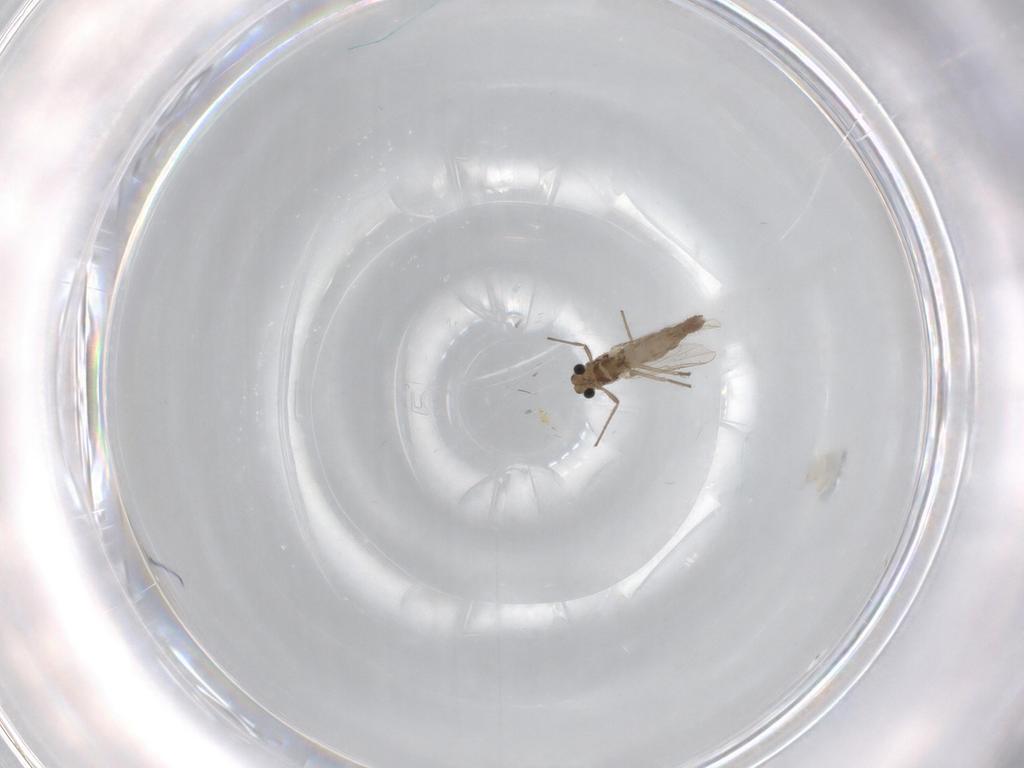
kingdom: Animalia
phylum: Arthropoda
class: Insecta
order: Diptera
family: Chironomidae
